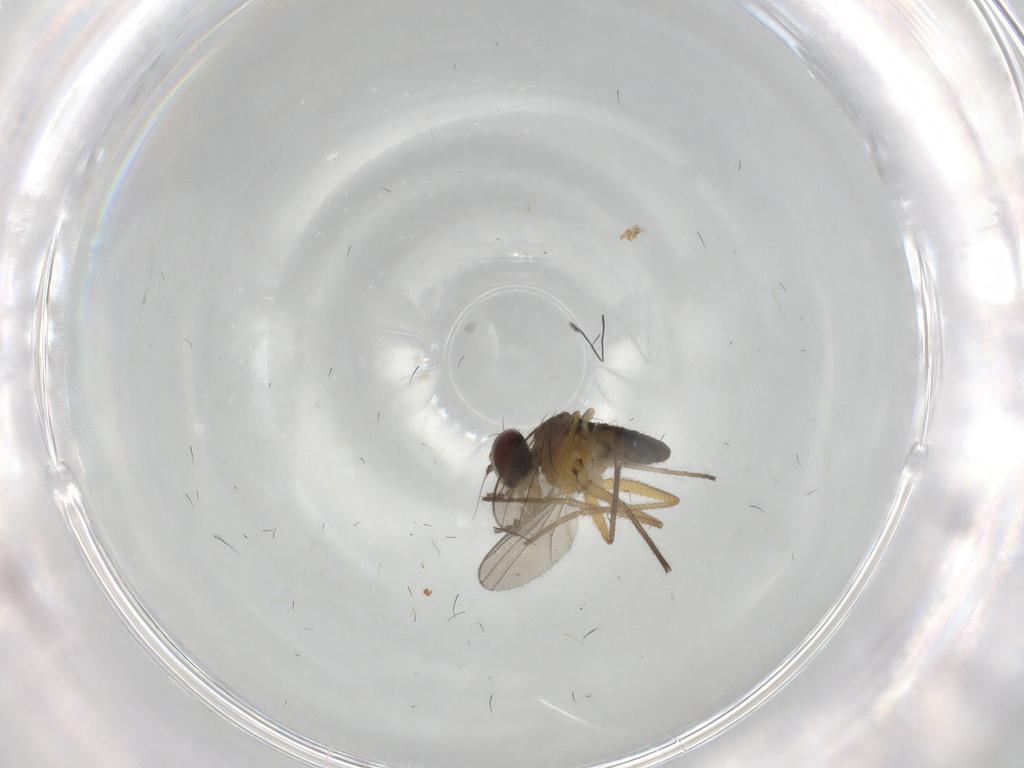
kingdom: Animalia
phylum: Arthropoda
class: Insecta
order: Diptera
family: Dolichopodidae
